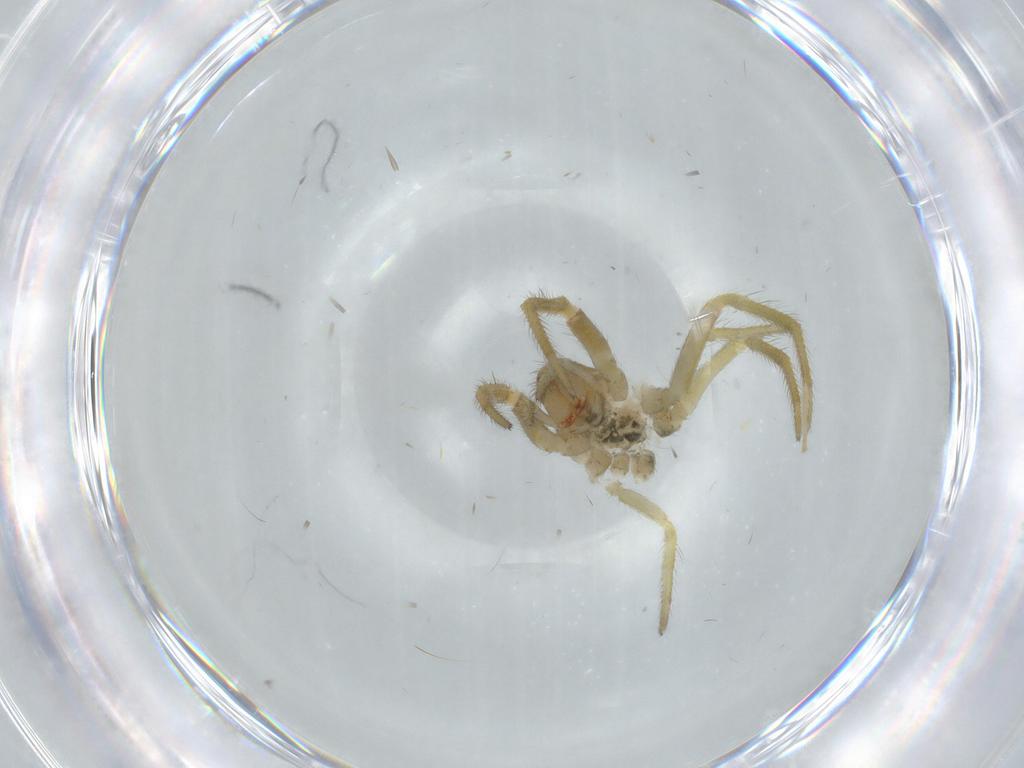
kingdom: Animalia
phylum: Arthropoda
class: Arachnida
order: Araneae
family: Araneidae
